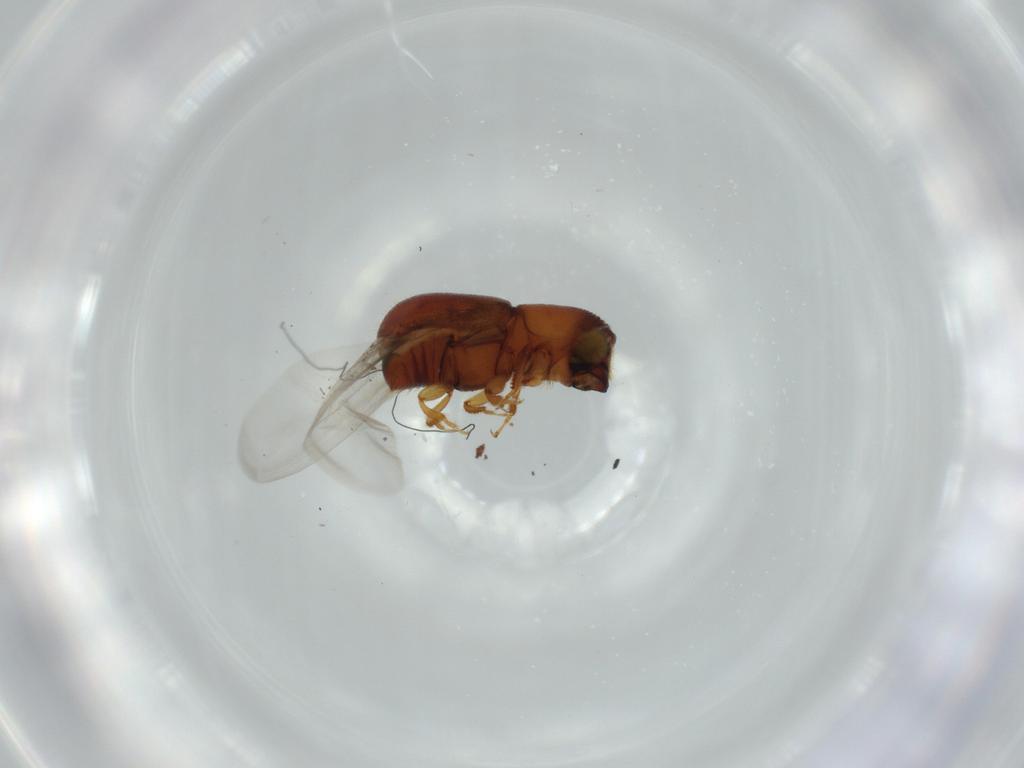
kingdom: Animalia
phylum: Arthropoda
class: Insecta
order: Coleoptera
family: Curculionidae
